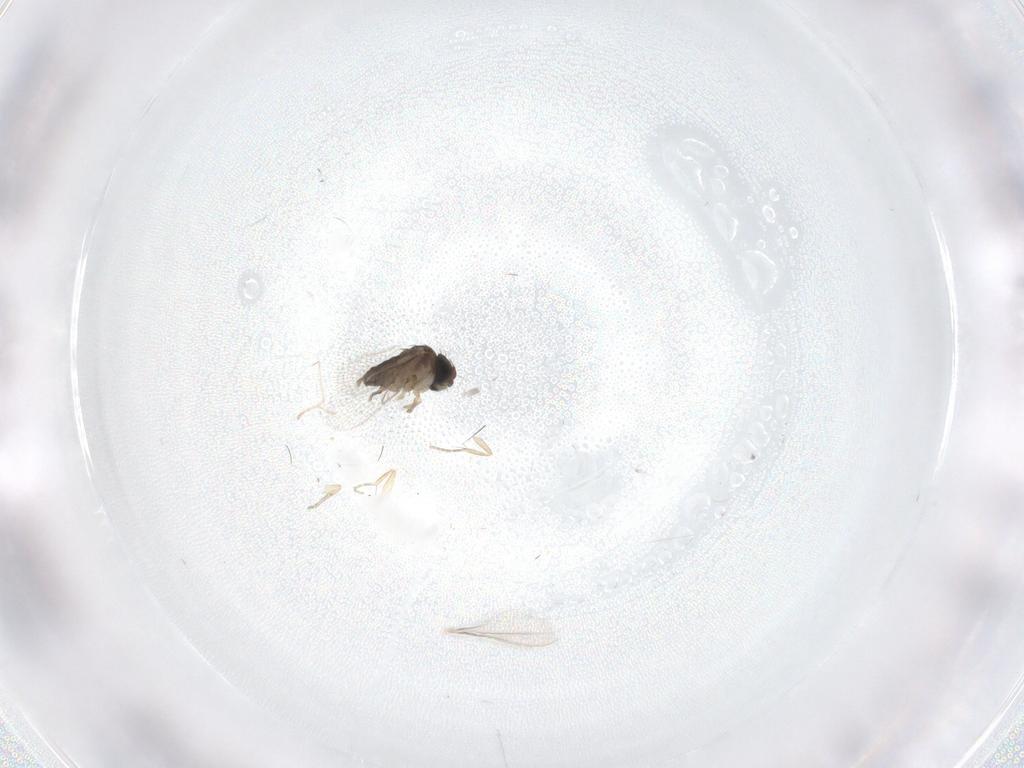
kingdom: Animalia
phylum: Arthropoda
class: Insecta
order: Diptera
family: Phoridae
